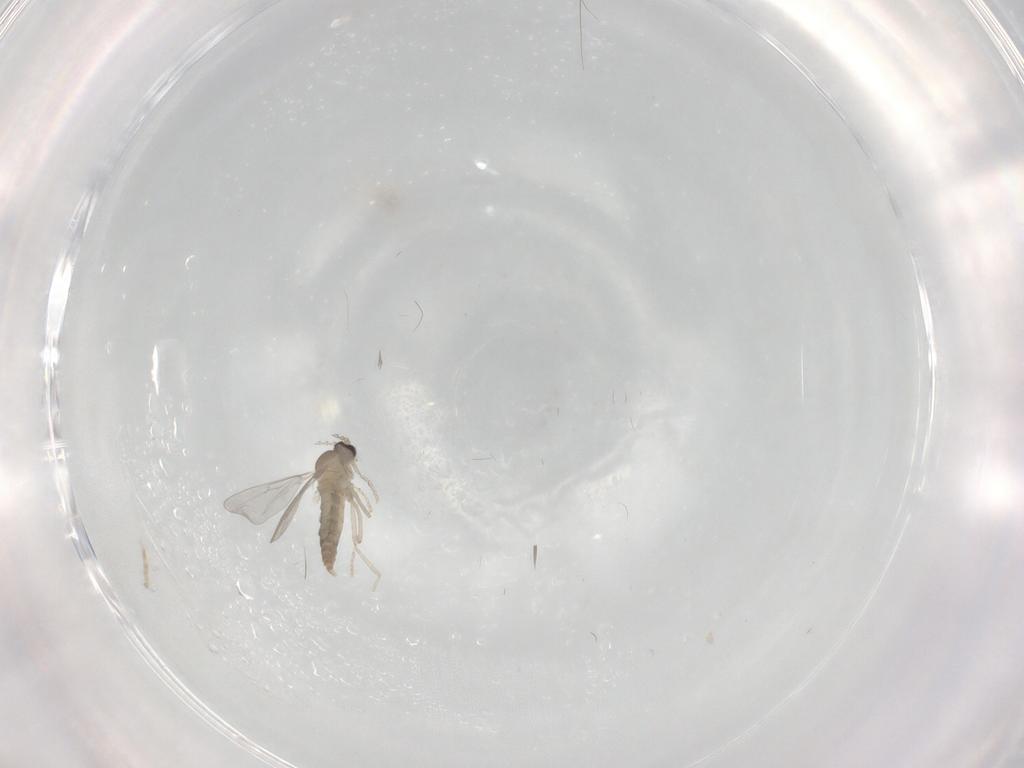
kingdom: Animalia
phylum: Arthropoda
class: Insecta
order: Diptera
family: Cecidomyiidae
